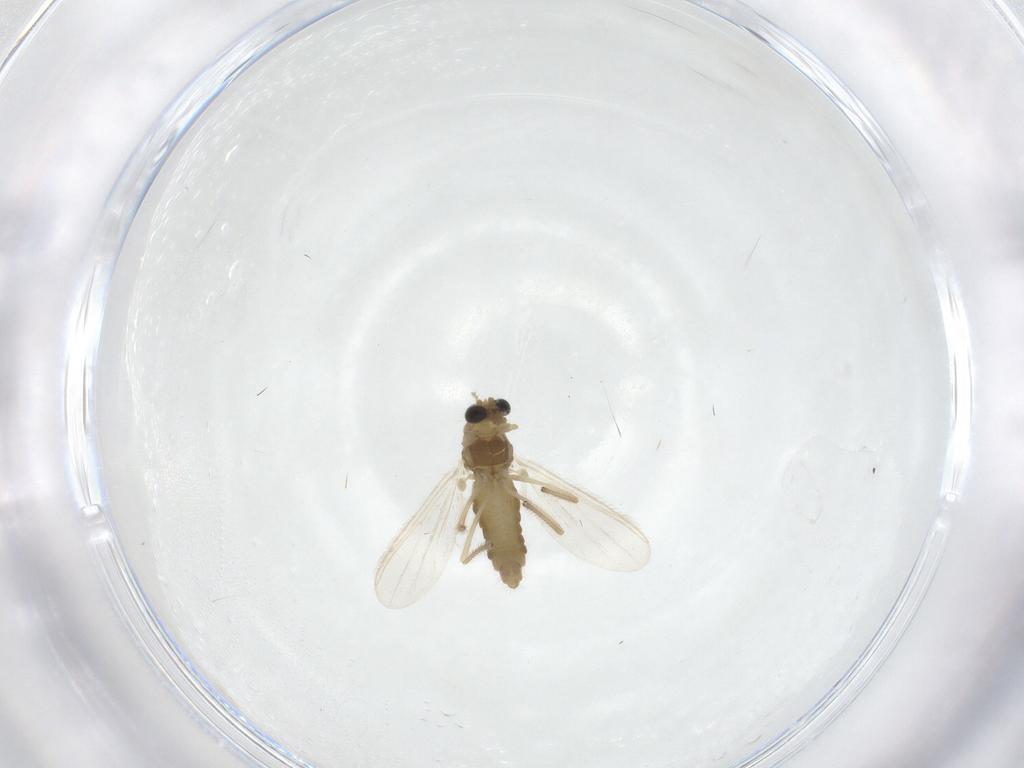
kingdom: Animalia
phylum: Arthropoda
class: Insecta
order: Diptera
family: Chironomidae
